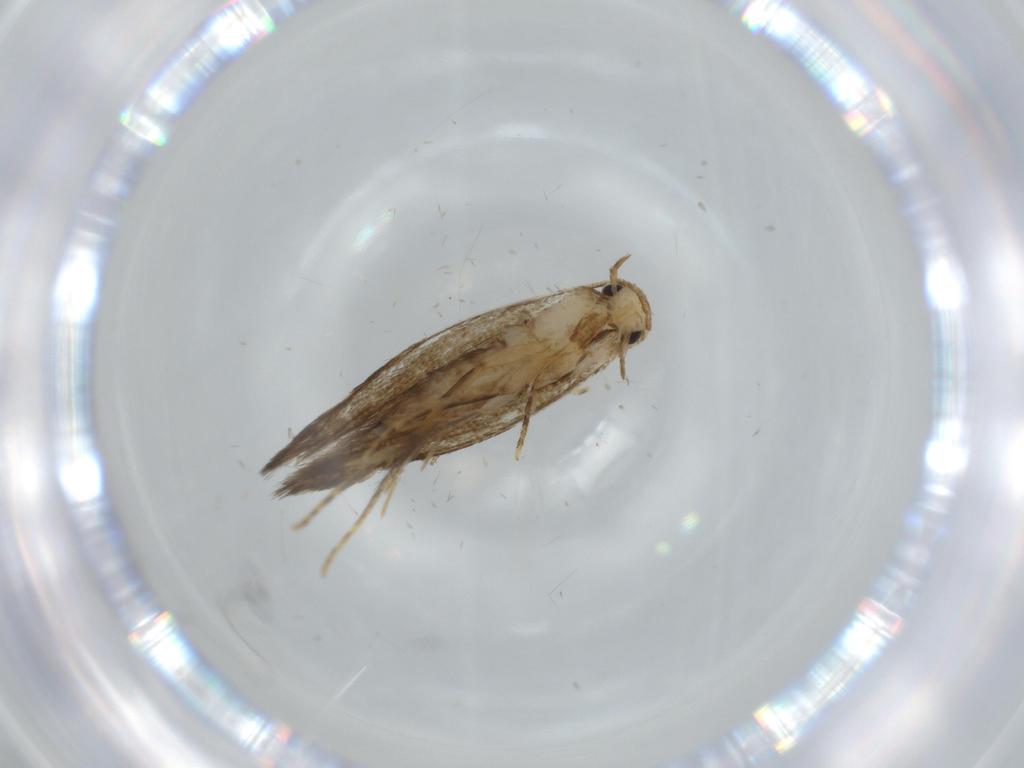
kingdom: Animalia
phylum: Arthropoda
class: Insecta
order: Lepidoptera
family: Tineidae
